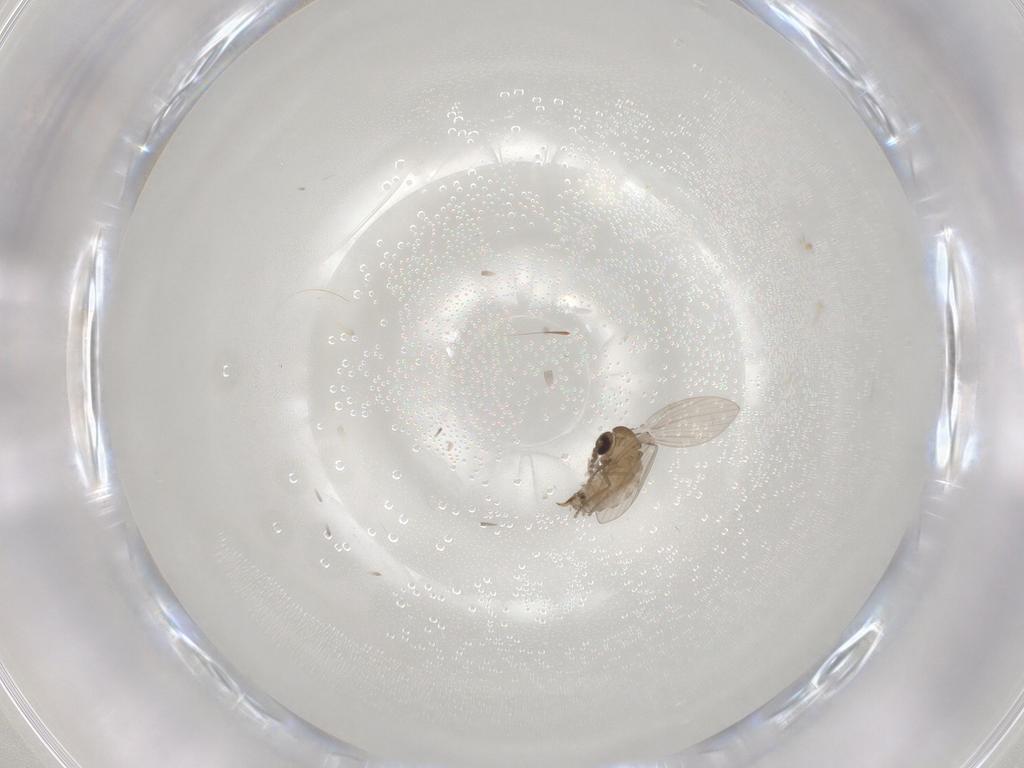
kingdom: Animalia
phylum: Arthropoda
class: Insecta
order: Diptera
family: Psychodidae
